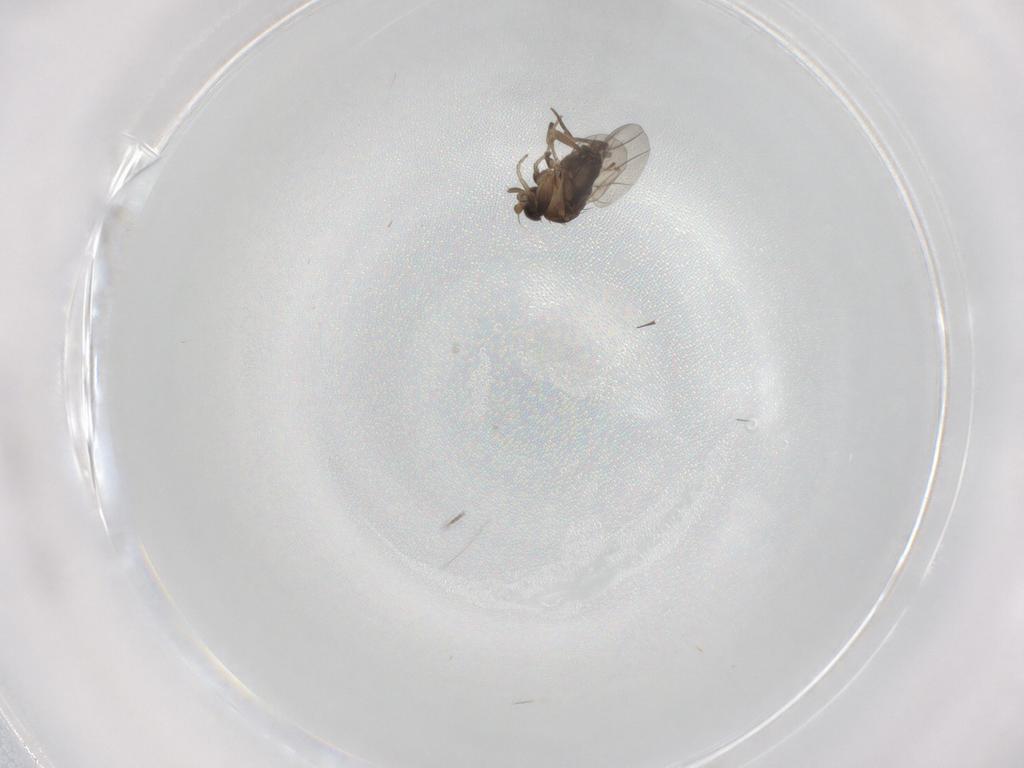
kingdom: Animalia
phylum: Arthropoda
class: Insecta
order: Diptera
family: Phoridae
